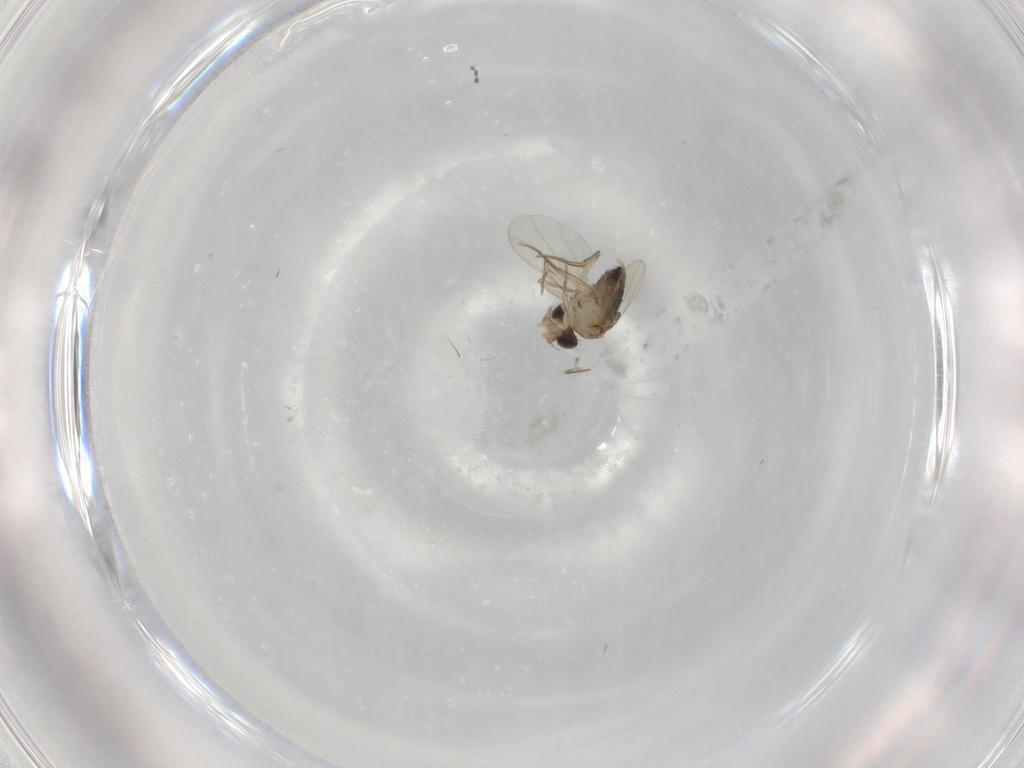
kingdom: Animalia
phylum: Arthropoda
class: Insecta
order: Diptera
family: Phoridae
